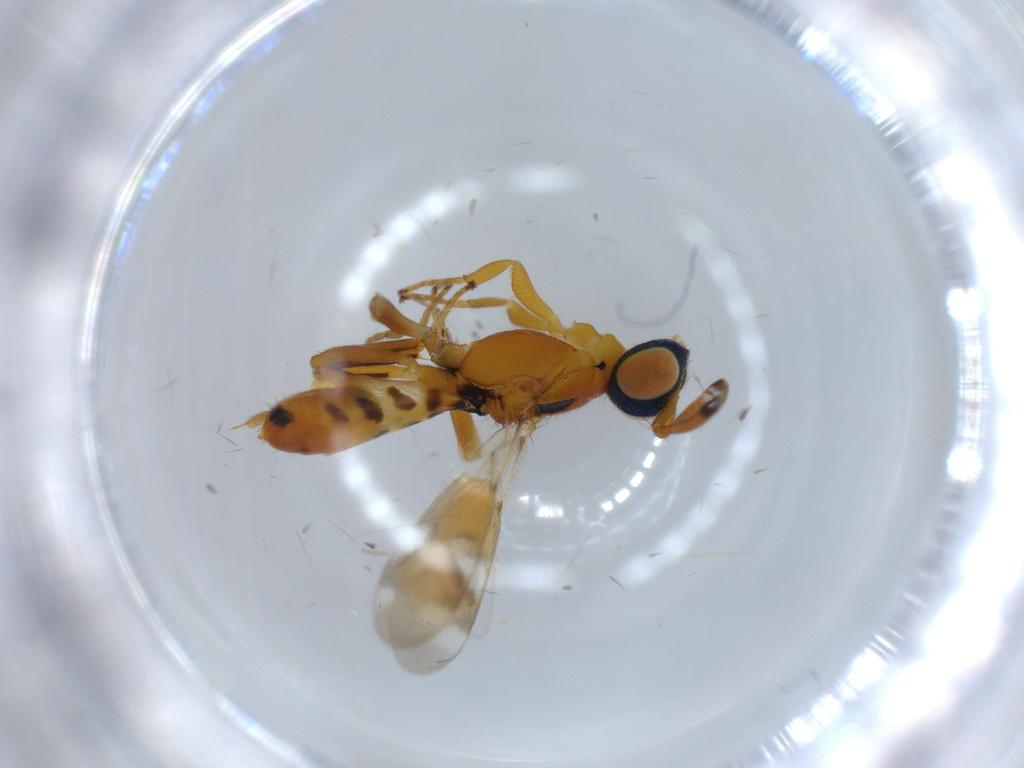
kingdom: Animalia
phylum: Arthropoda
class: Insecta
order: Hymenoptera
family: Eupelmidae
